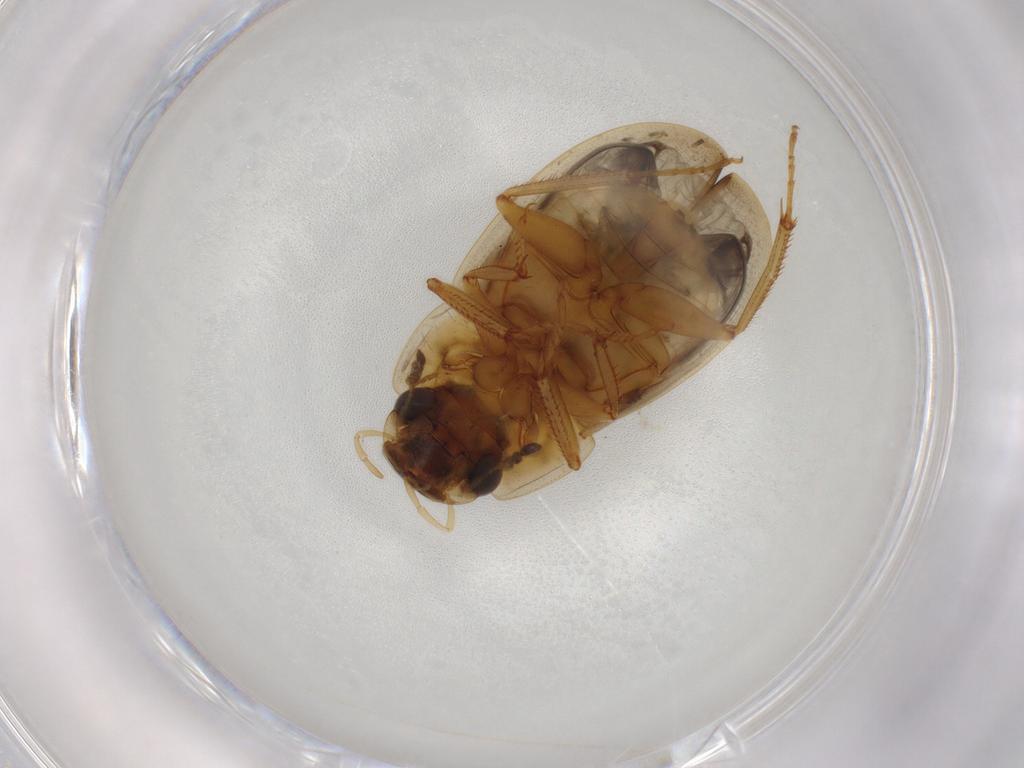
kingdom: Animalia
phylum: Arthropoda
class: Insecta
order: Coleoptera
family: Hydrophilidae
